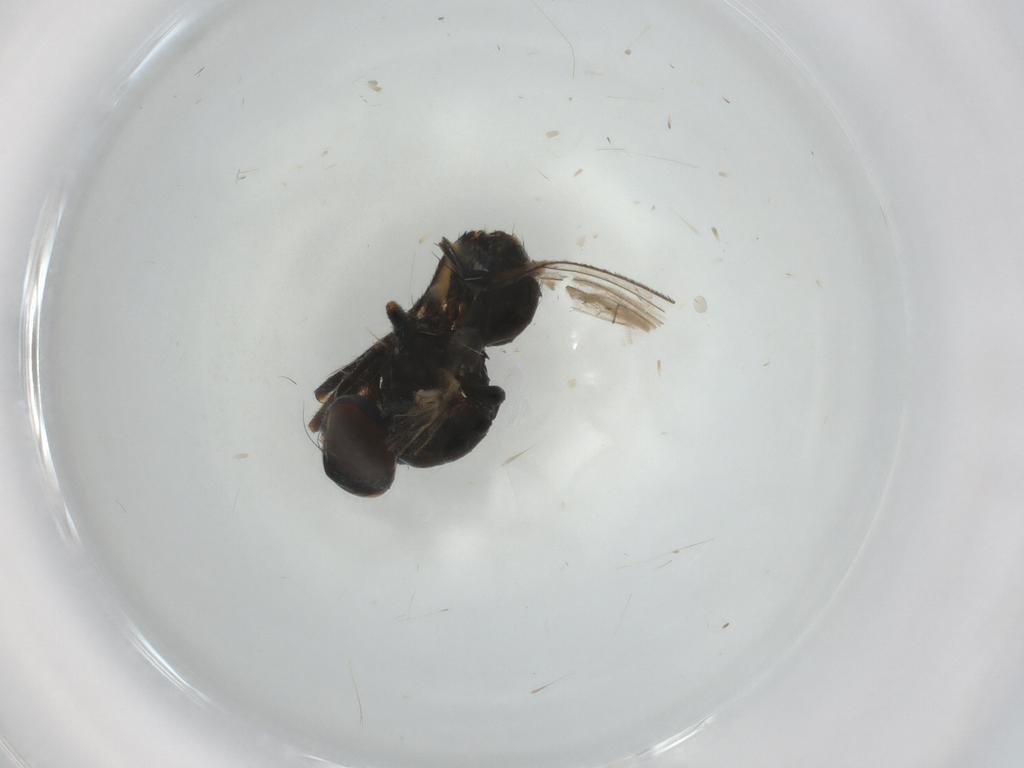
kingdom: Animalia
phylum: Arthropoda
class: Insecta
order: Diptera
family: Muscidae
